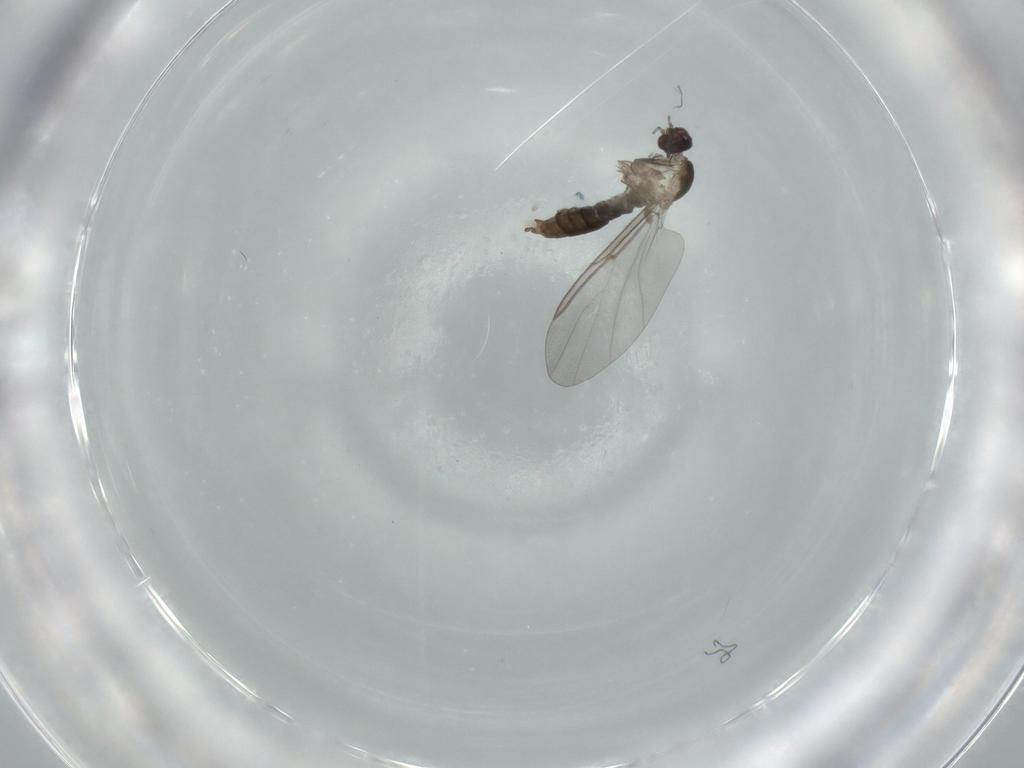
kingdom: Animalia
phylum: Arthropoda
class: Insecta
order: Diptera
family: Cecidomyiidae
